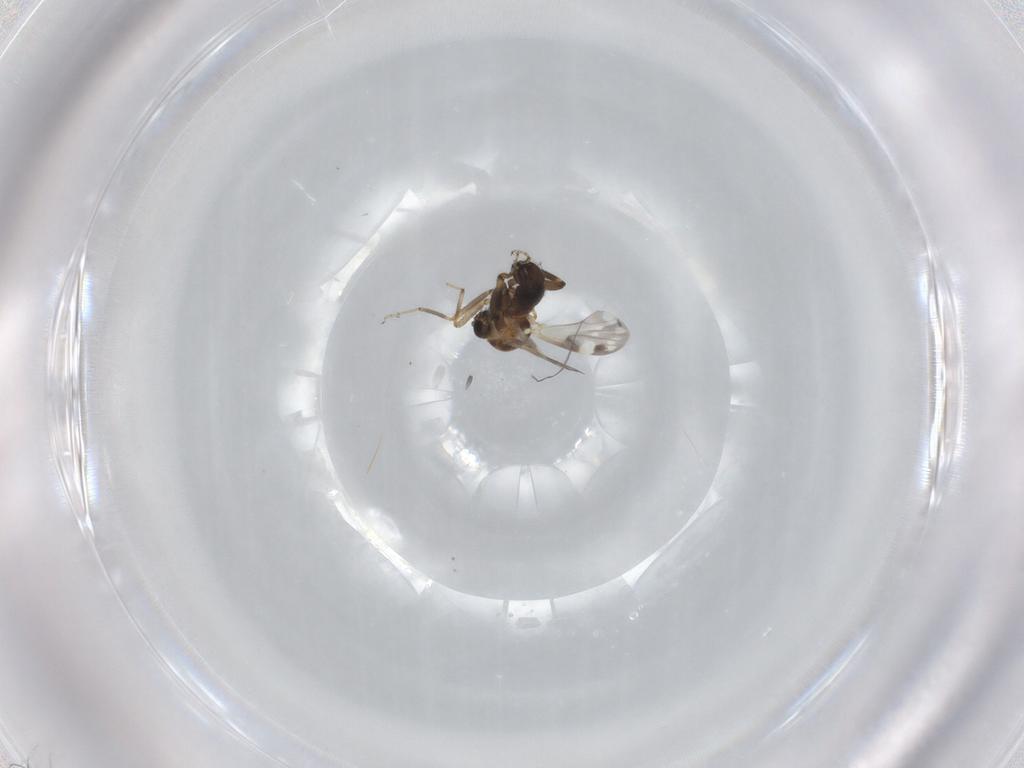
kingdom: Animalia
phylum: Arthropoda
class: Insecta
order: Diptera
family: Ceratopogonidae
